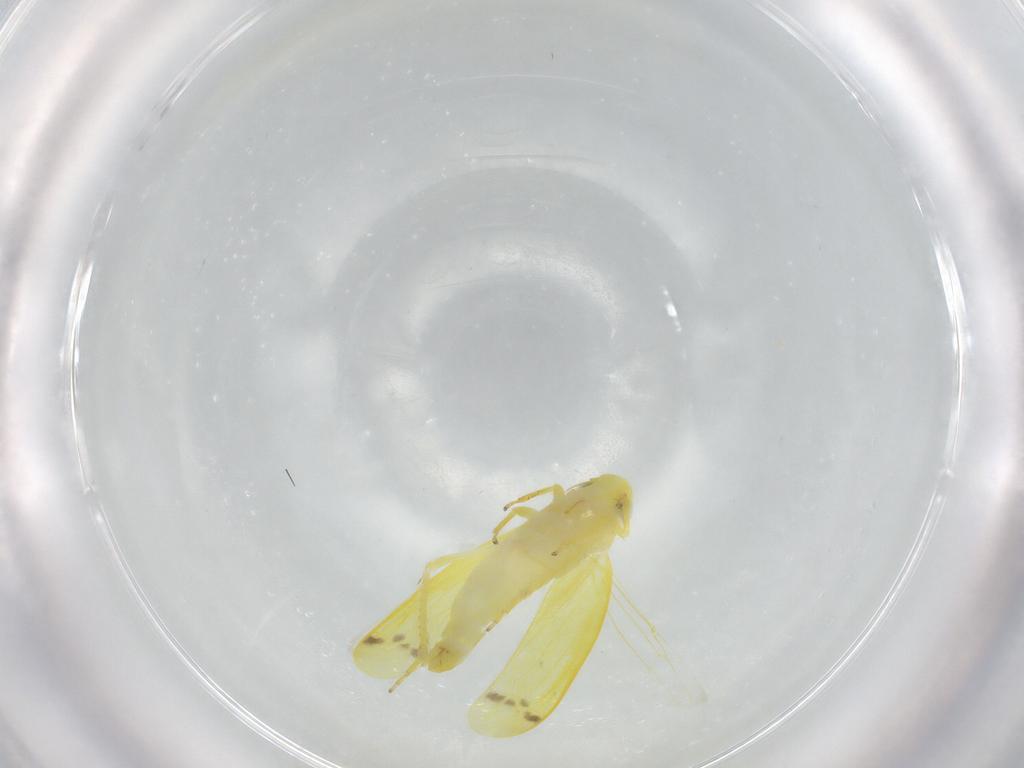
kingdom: Animalia
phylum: Arthropoda
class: Insecta
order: Hemiptera
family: Cicadellidae
